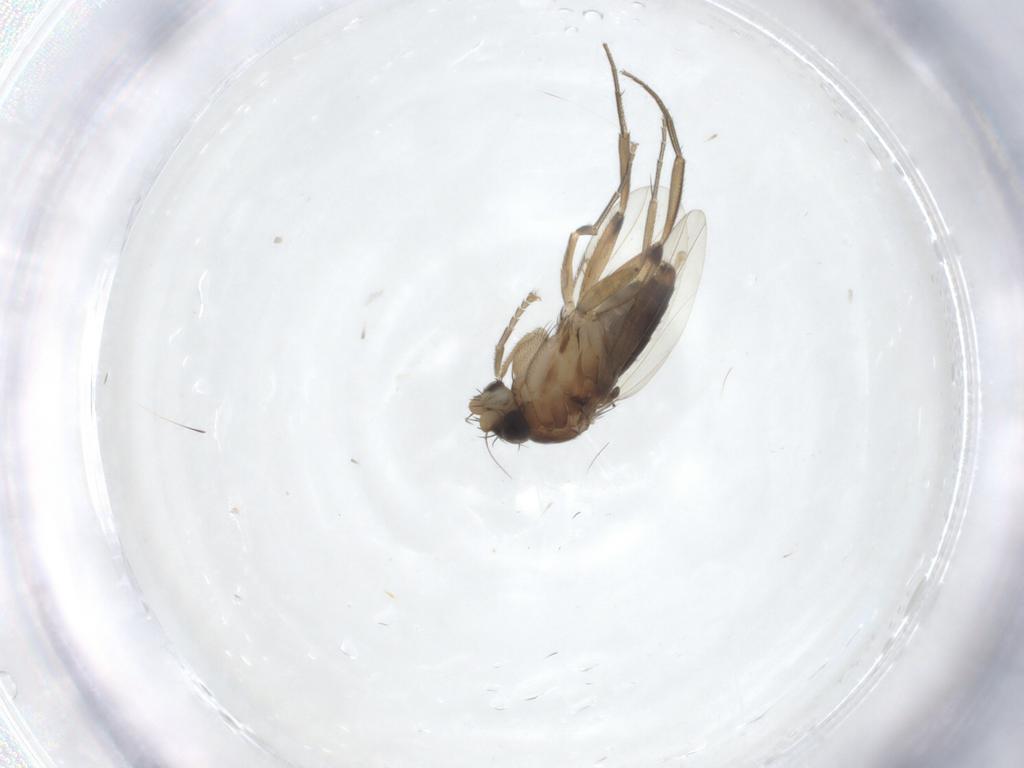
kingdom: Animalia
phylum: Arthropoda
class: Insecta
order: Diptera
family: Phoridae
